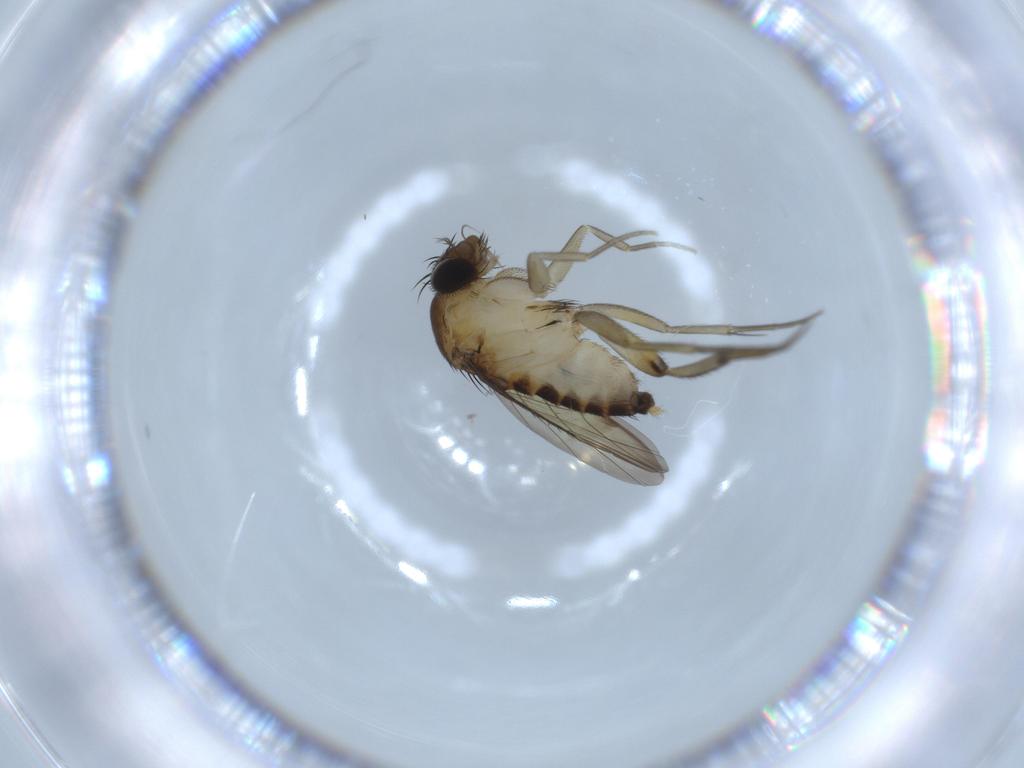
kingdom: Animalia
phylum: Arthropoda
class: Insecta
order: Diptera
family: Phoridae
